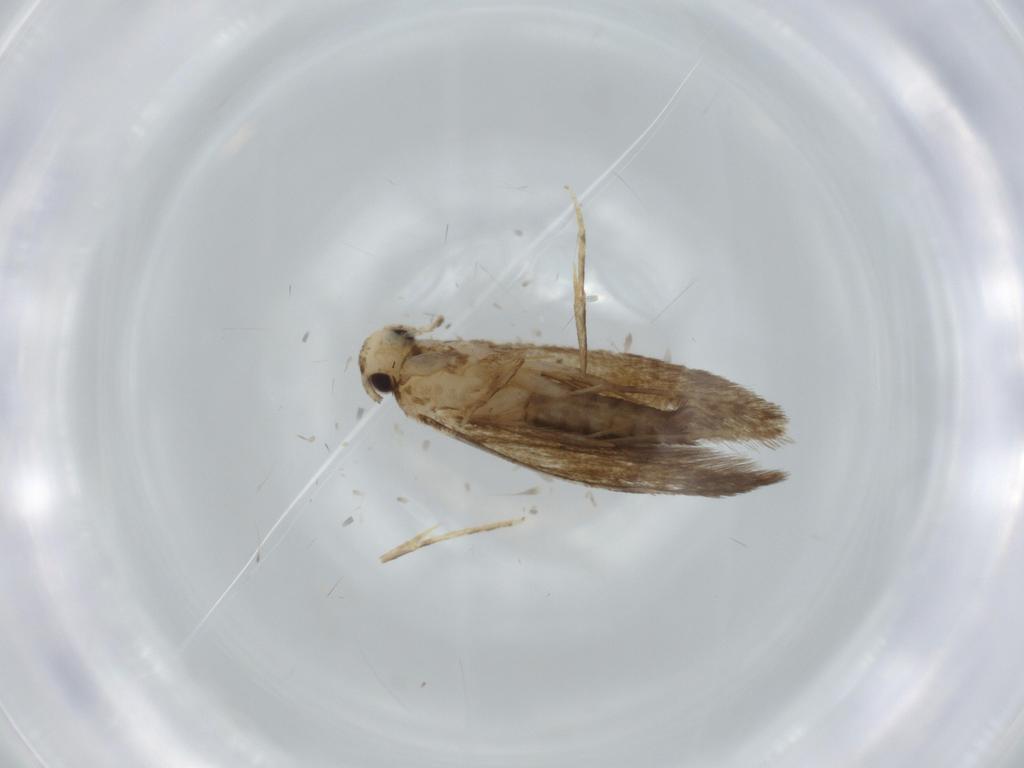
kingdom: Animalia
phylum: Arthropoda
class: Insecta
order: Lepidoptera
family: Tineidae
